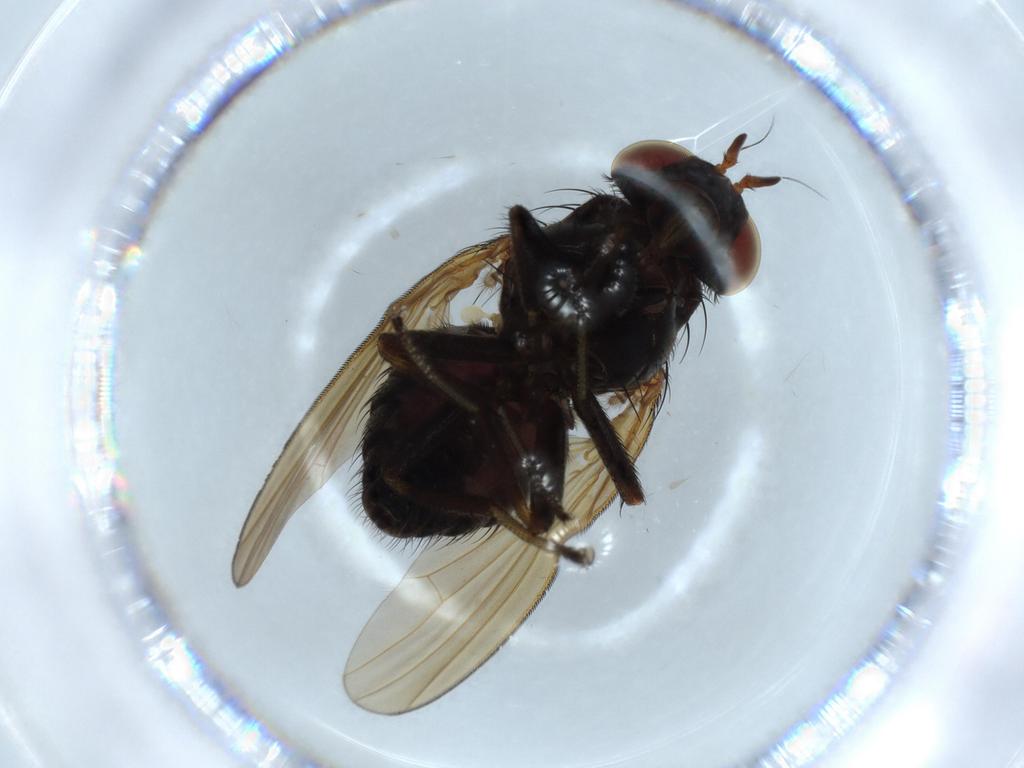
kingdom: Animalia
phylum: Arthropoda
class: Insecta
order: Diptera
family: Lauxaniidae
